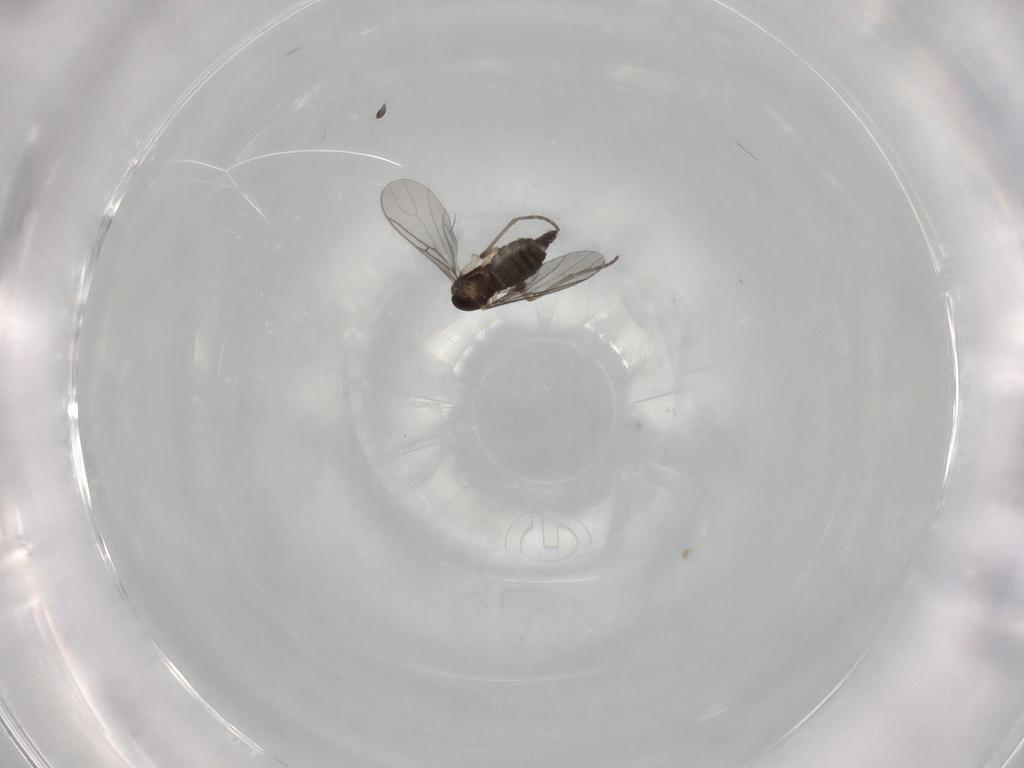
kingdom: Animalia
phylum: Arthropoda
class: Insecta
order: Diptera
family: Sciaridae
